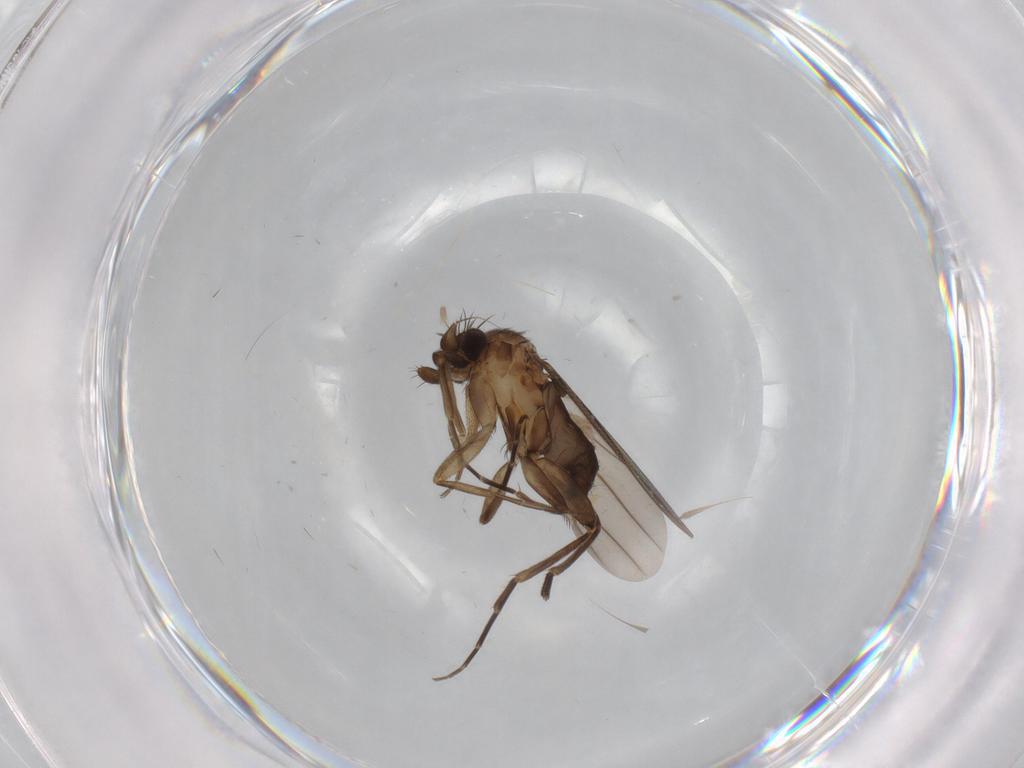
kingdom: Animalia
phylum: Arthropoda
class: Insecta
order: Diptera
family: Phoridae
